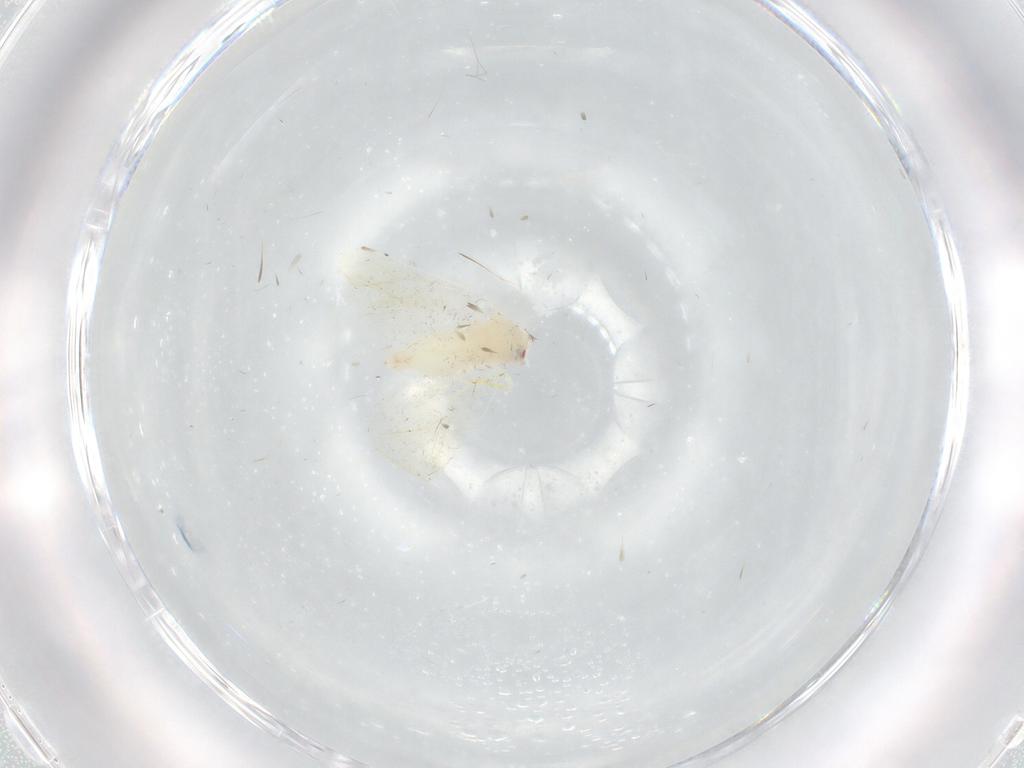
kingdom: Animalia
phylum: Arthropoda
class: Insecta
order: Hemiptera
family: Aleyrodidae
